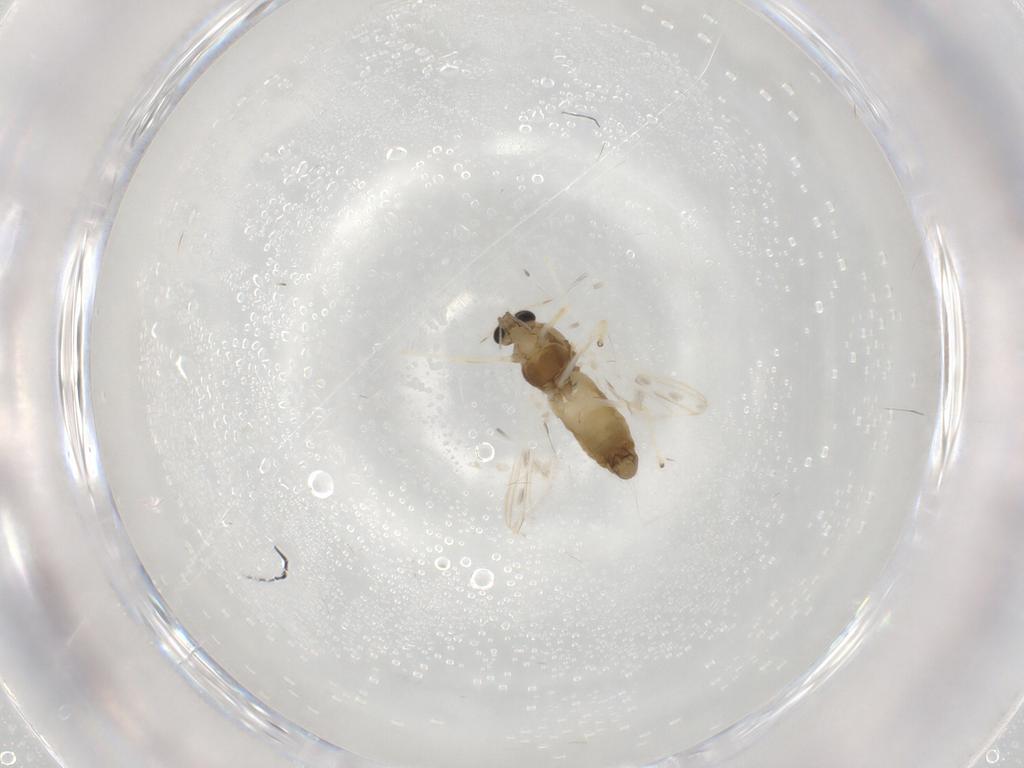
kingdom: Animalia
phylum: Arthropoda
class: Insecta
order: Diptera
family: Chironomidae
